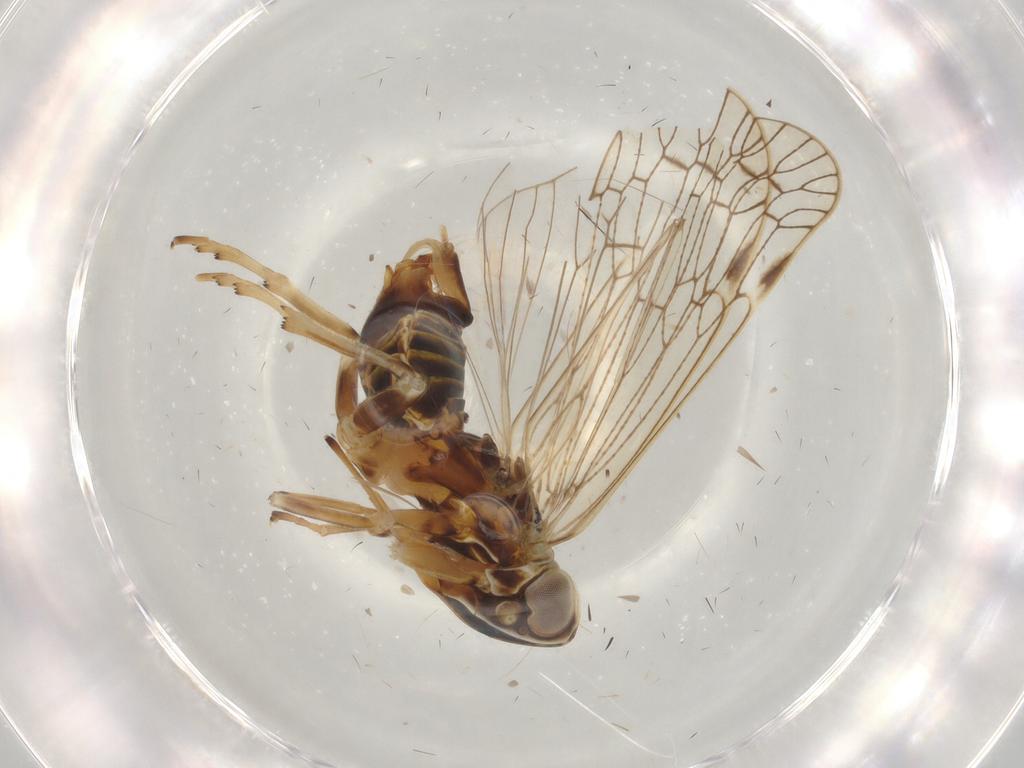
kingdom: Animalia
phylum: Arthropoda
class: Insecta
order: Hemiptera
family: Cixiidae
